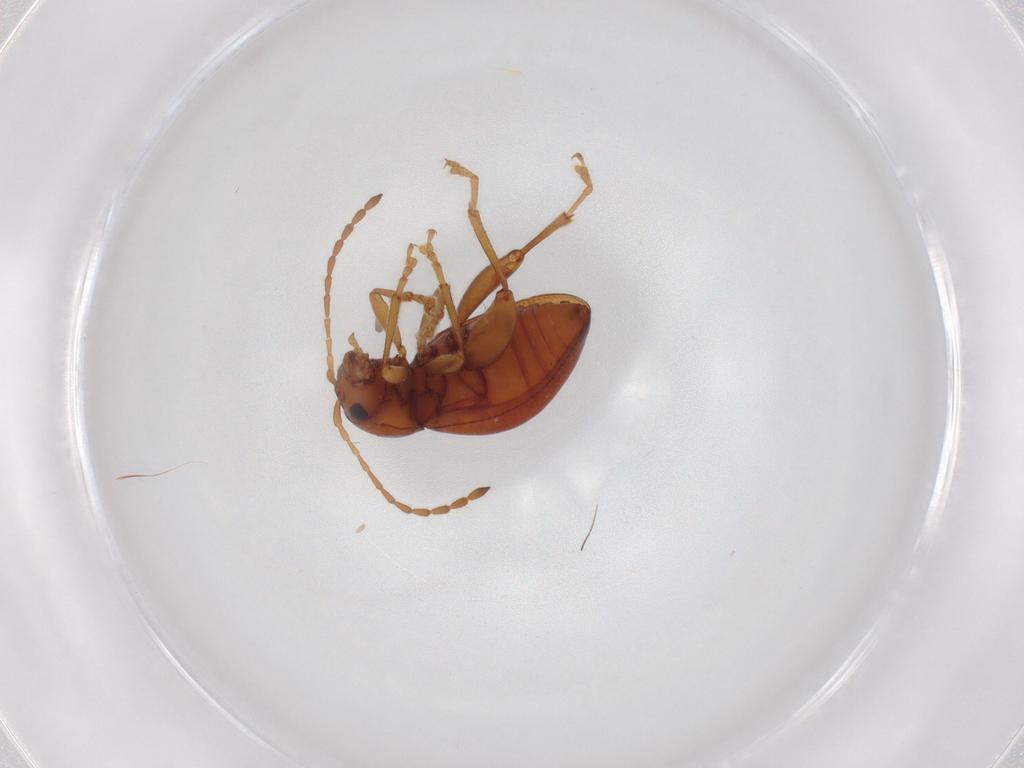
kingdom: Animalia
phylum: Arthropoda
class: Insecta
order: Coleoptera
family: Chrysomelidae
